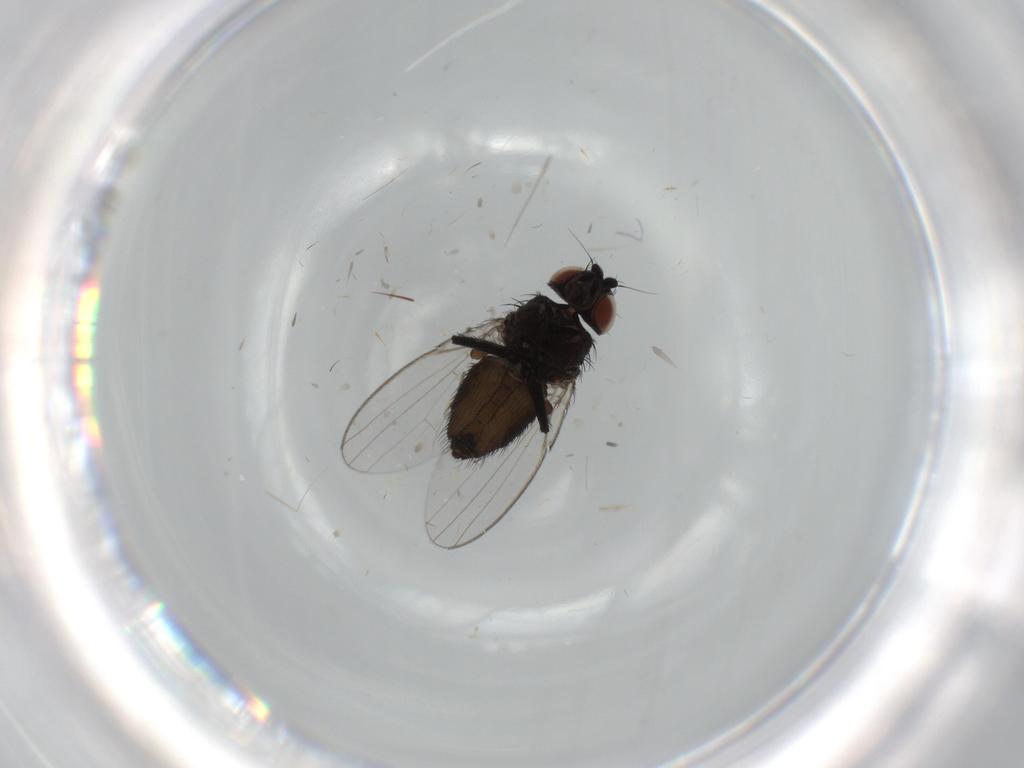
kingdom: Animalia
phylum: Arthropoda
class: Insecta
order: Diptera
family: Milichiidae
